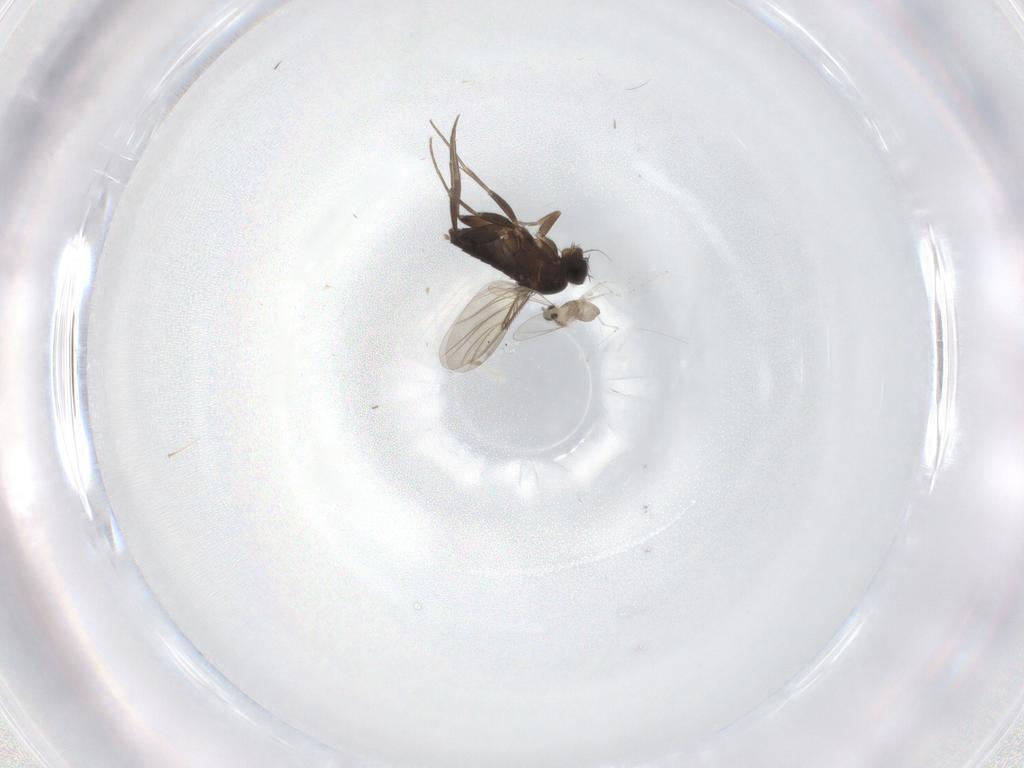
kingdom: Animalia
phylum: Arthropoda
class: Insecta
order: Diptera
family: Phoridae
